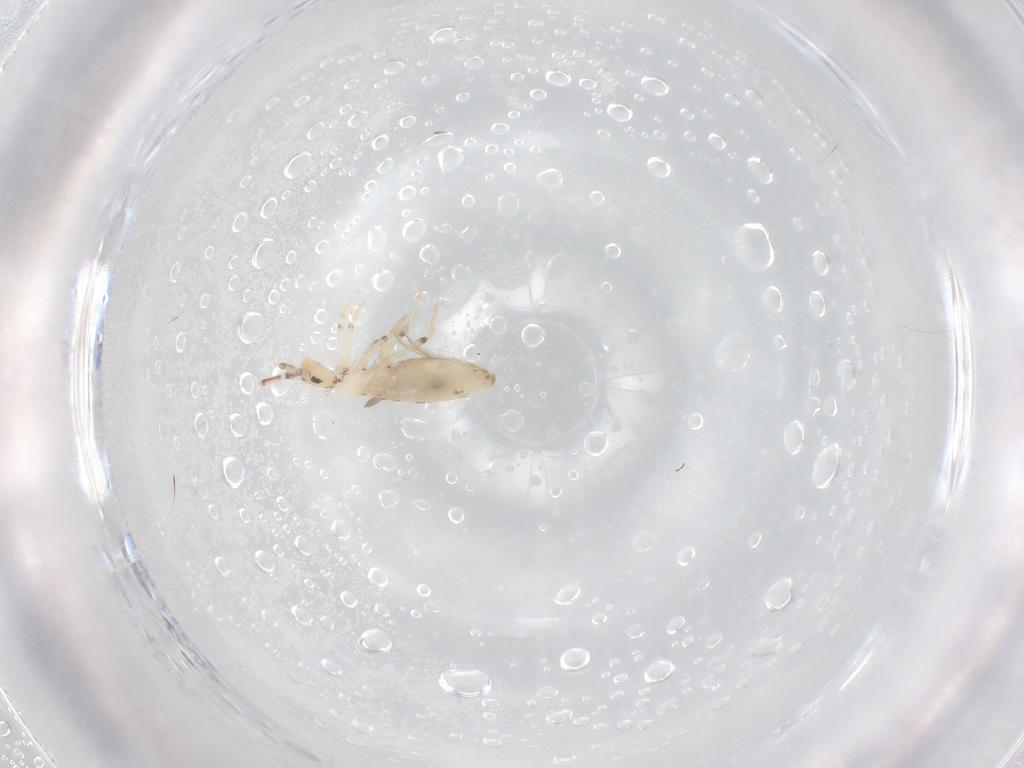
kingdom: Animalia
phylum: Arthropoda
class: Collembola
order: Entomobryomorpha
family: Entomobryidae
